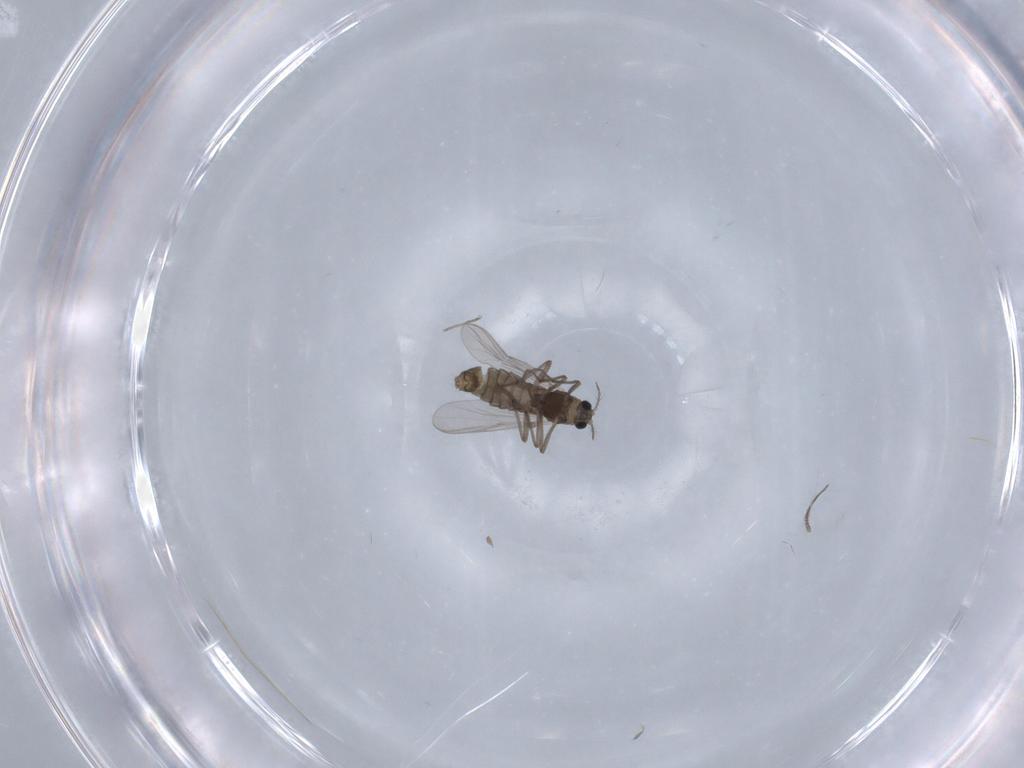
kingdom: Animalia
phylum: Arthropoda
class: Insecta
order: Diptera
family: Chironomidae
